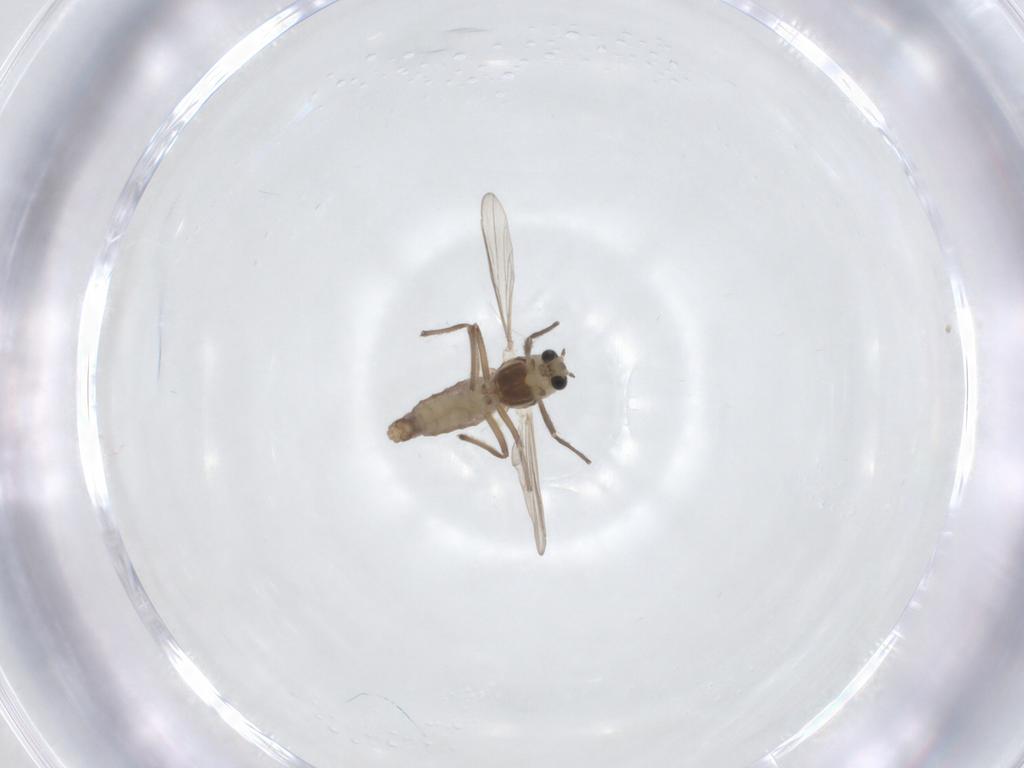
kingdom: Animalia
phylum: Arthropoda
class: Insecta
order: Diptera
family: Chironomidae
